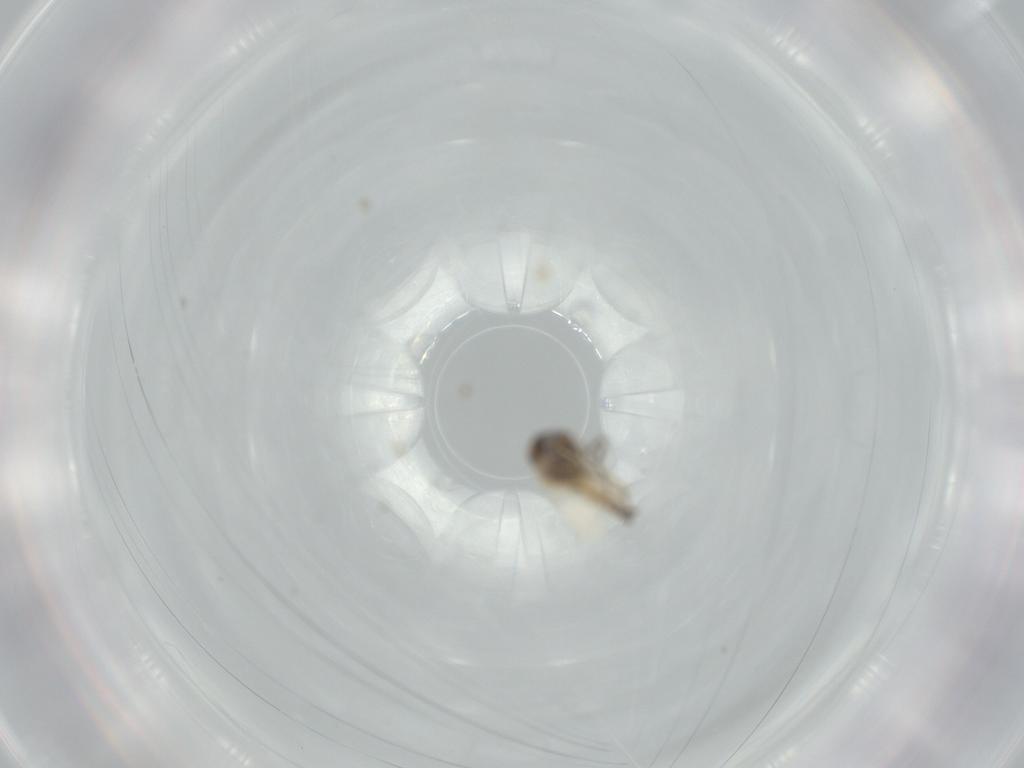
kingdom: Animalia
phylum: Arthropoda
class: Insecta
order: Diptera
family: Ceratopogonidae
